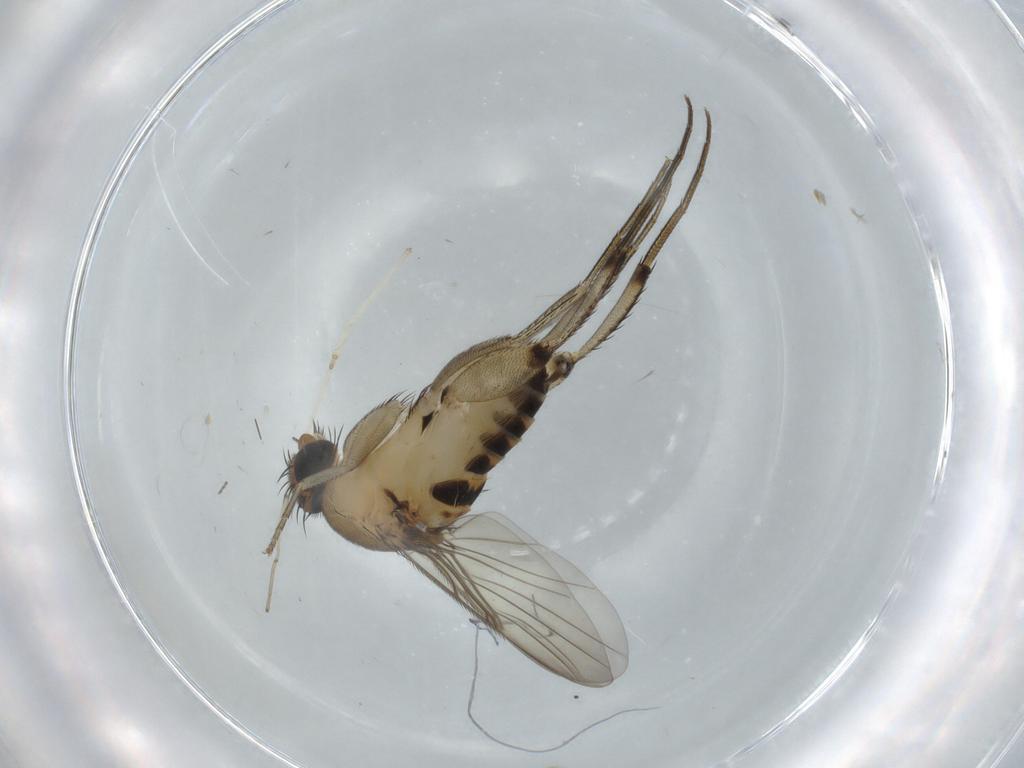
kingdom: Animalia
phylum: Arthropoda
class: Insecta
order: Diptera
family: Phoridae
